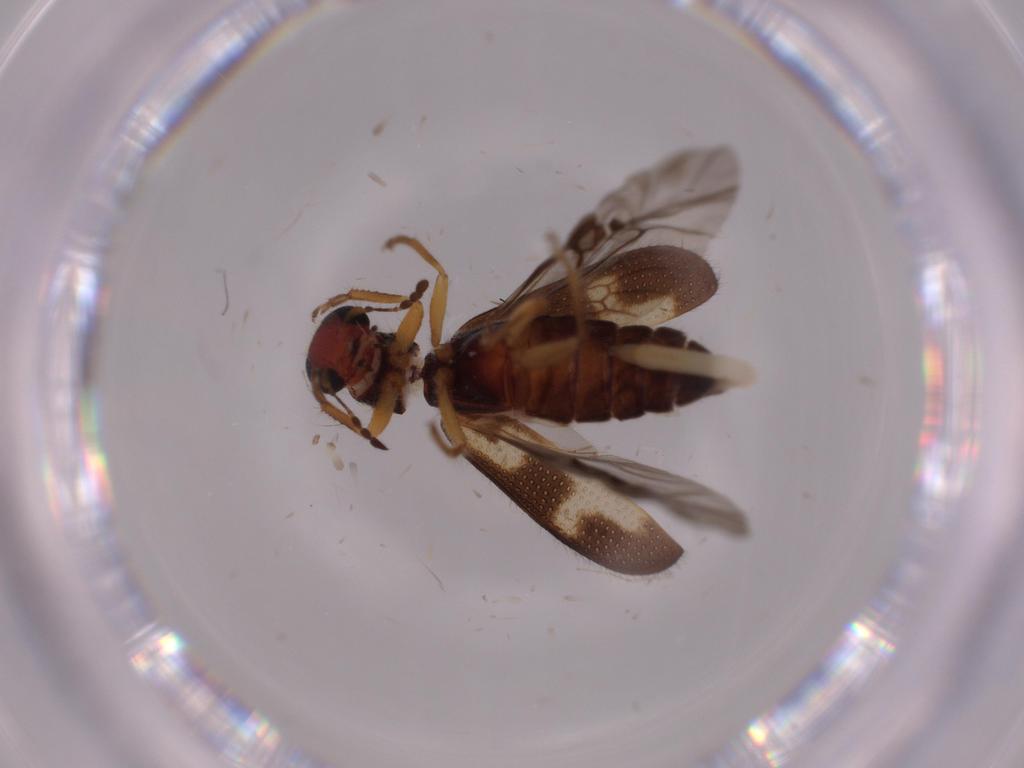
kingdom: Animalia
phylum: Arthropoda
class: Insecta
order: Coleoptera
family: Cleridae
